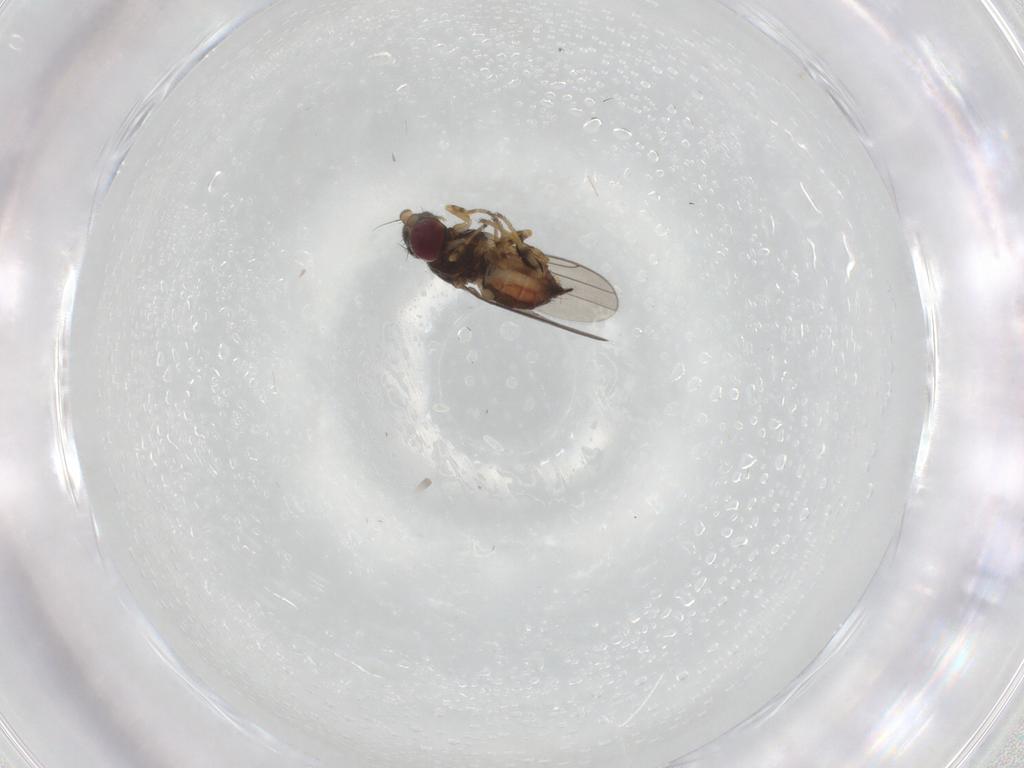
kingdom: Animalia
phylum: Arthropoda
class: Insecta
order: Diptera
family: Chloropidae
